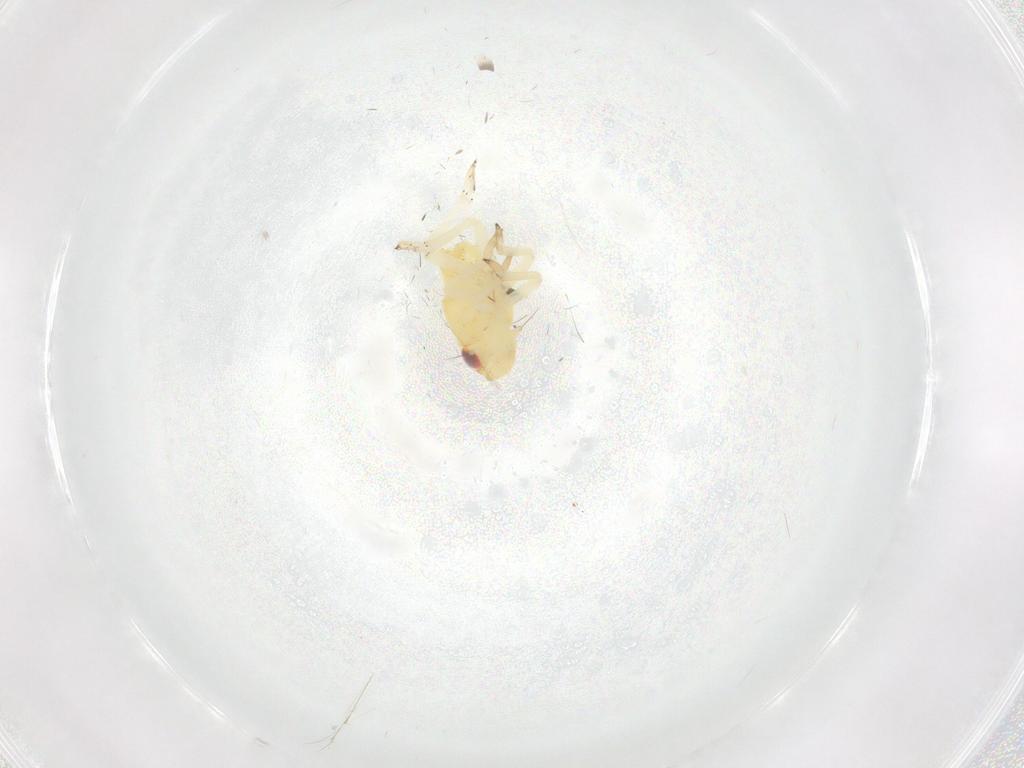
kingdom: Animalia
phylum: Arthropoda
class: Insecta
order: Hemiptera
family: Caliscelidae
